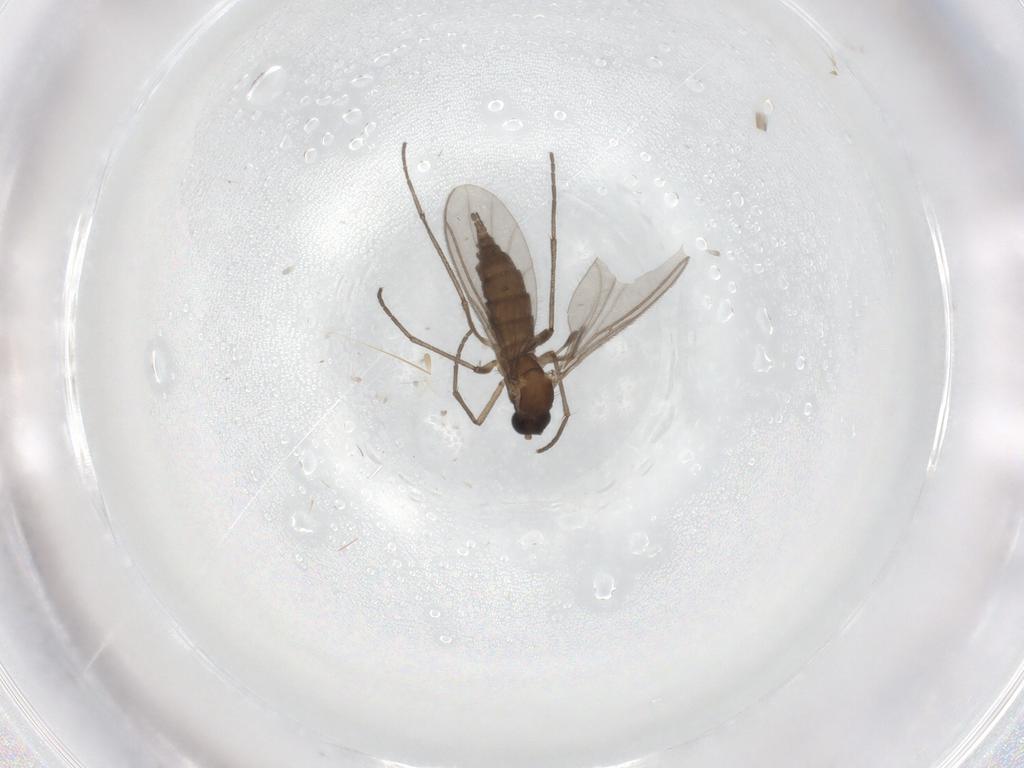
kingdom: Animalia
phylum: Arthropoda
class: Insecta
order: Diptera
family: Sciaridae
